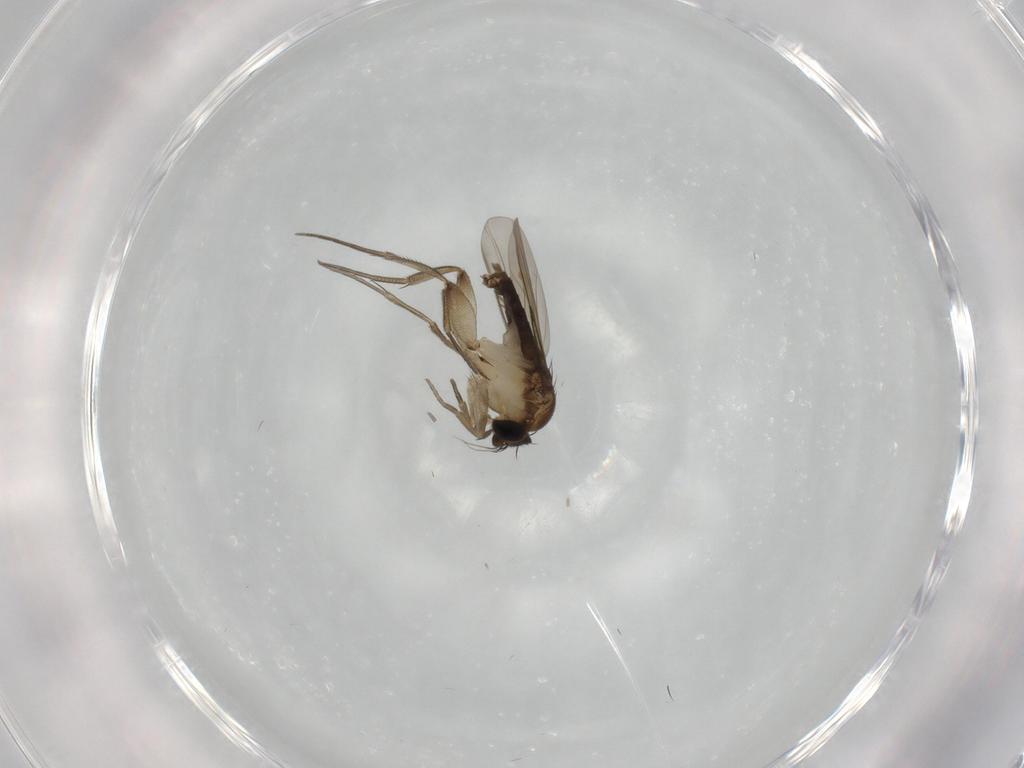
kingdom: Animalia
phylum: Arthropoda
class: Insecta
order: Diptera
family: Phoridae
